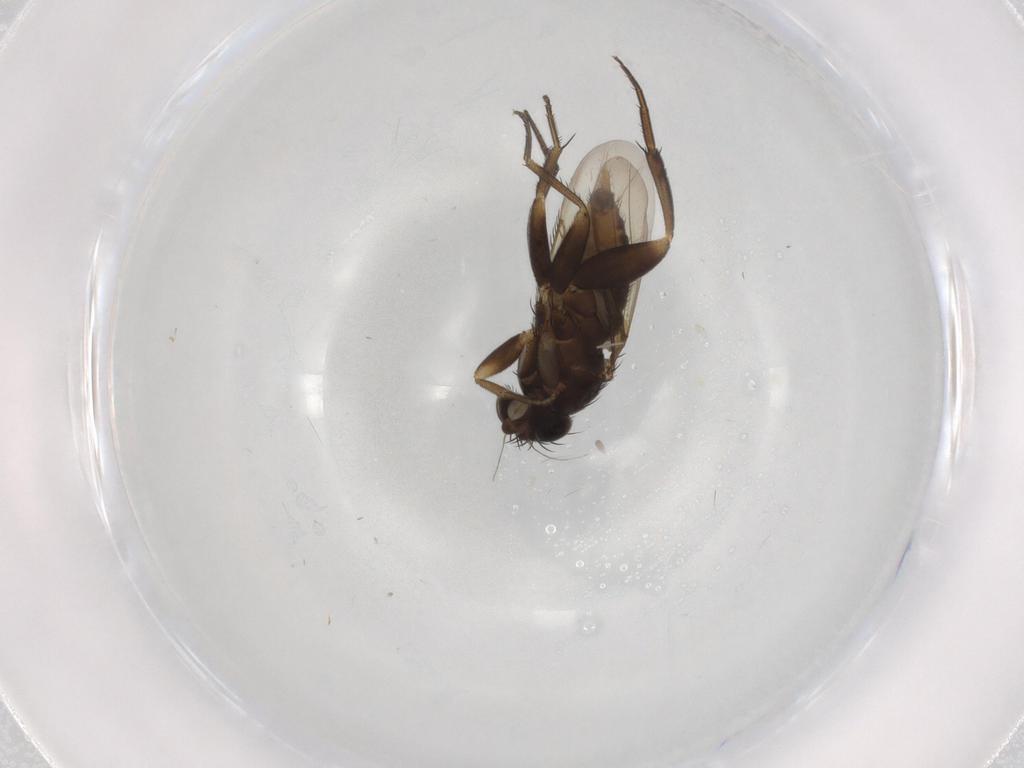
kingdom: Animalia
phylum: Arthropoda
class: Insecta
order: Diptera
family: Phoridae
